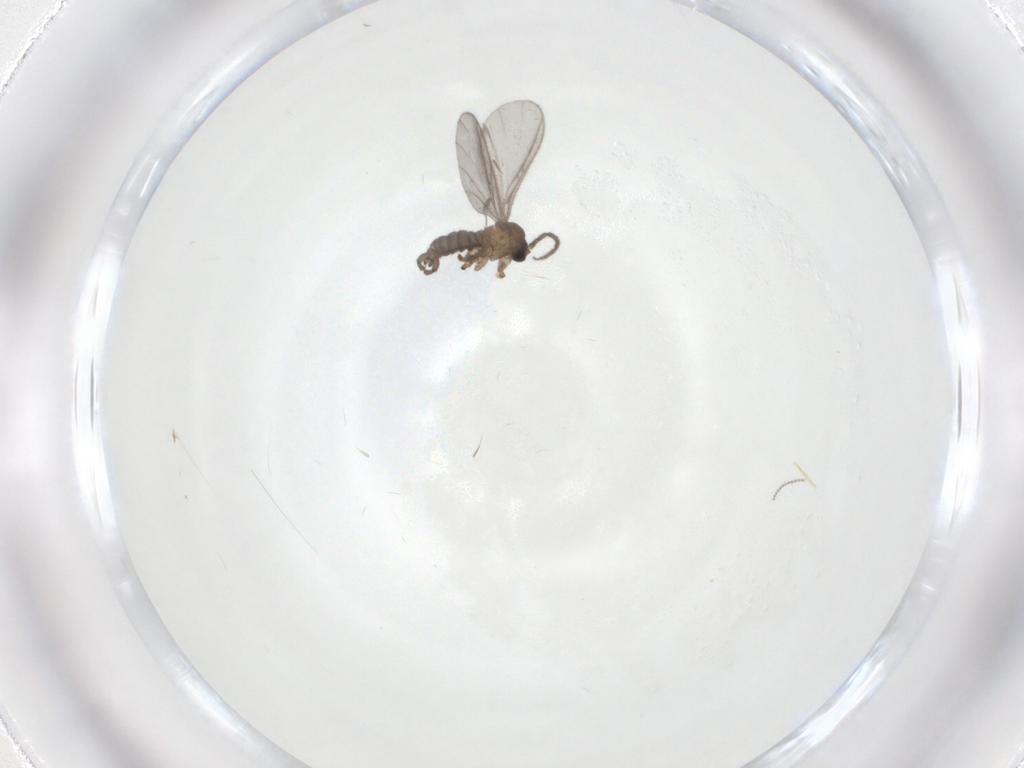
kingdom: Animalia
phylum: Arthropoda
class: Insecta
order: Diptera
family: Sciaridae
